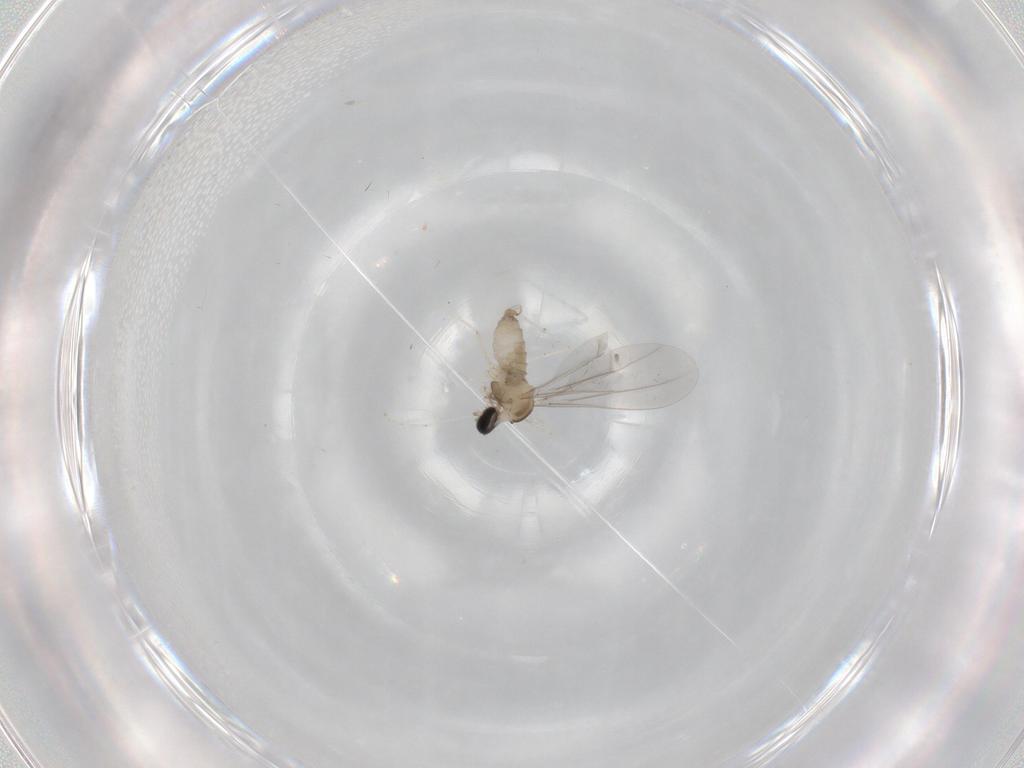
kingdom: Animalia
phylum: Arthropoda
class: Insecta
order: Diptera
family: Cecidomyiidae
